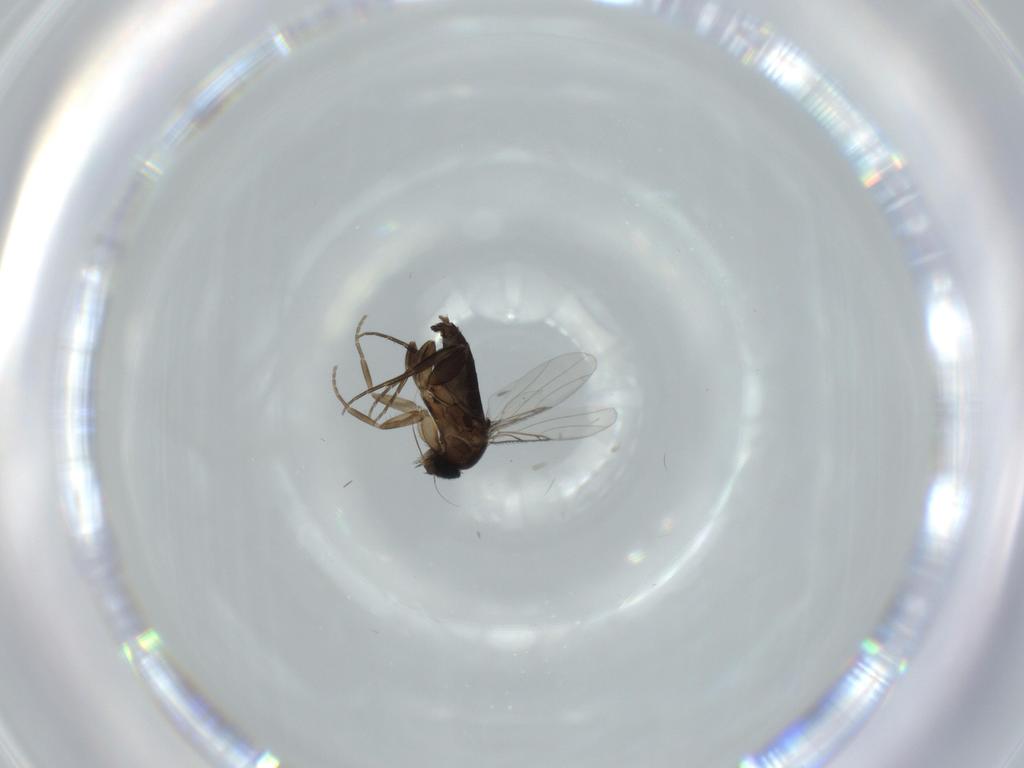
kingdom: Animalia
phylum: Arthropoda
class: Insecta
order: Diptera
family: Phoridae
